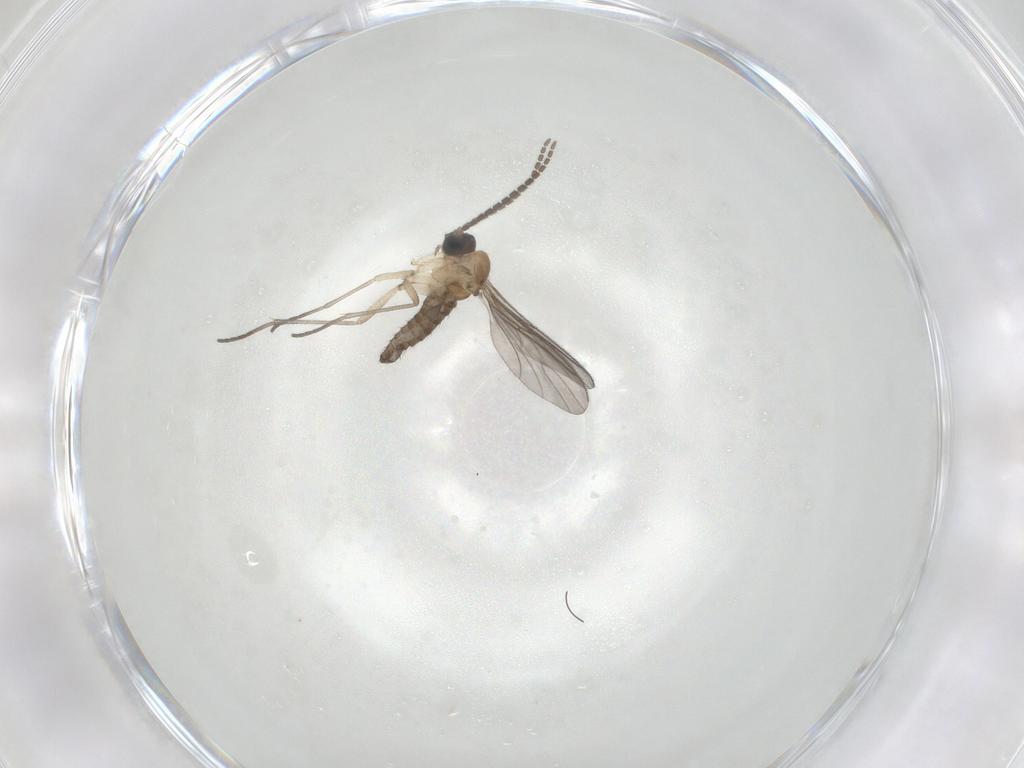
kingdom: Animalia
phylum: Arthropoda
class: Insecta
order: Diptera
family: Sciaridae
